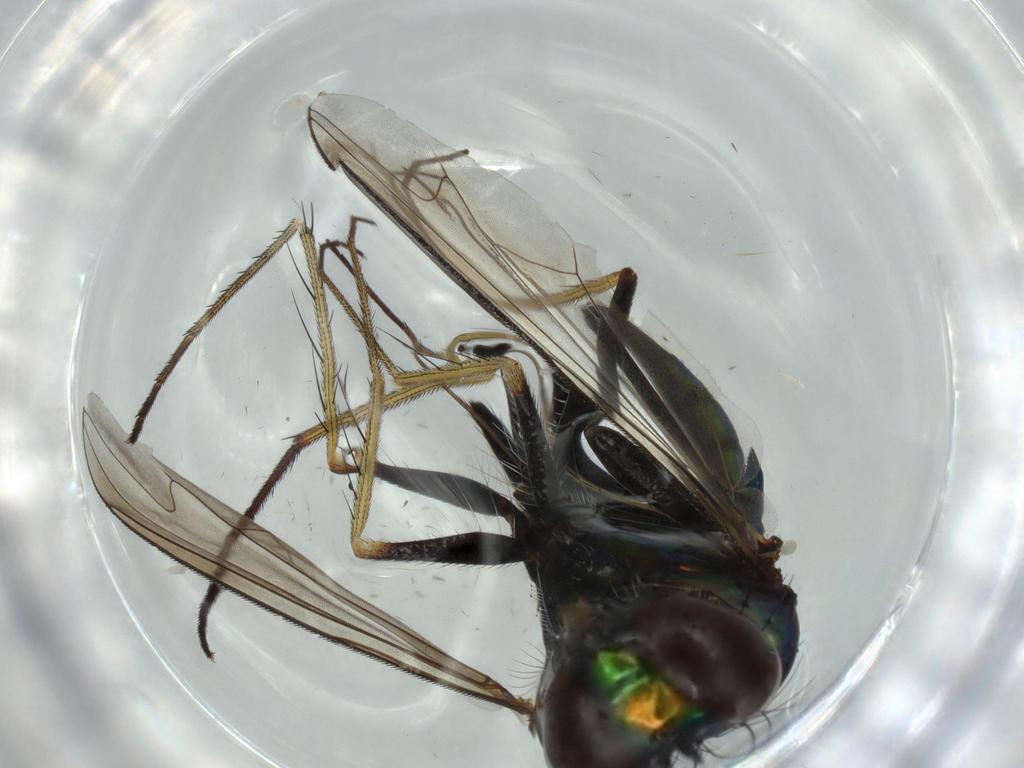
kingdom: Animalia
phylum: Arthropoda
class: Insecta
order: Diptera
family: Dolichopodidae
